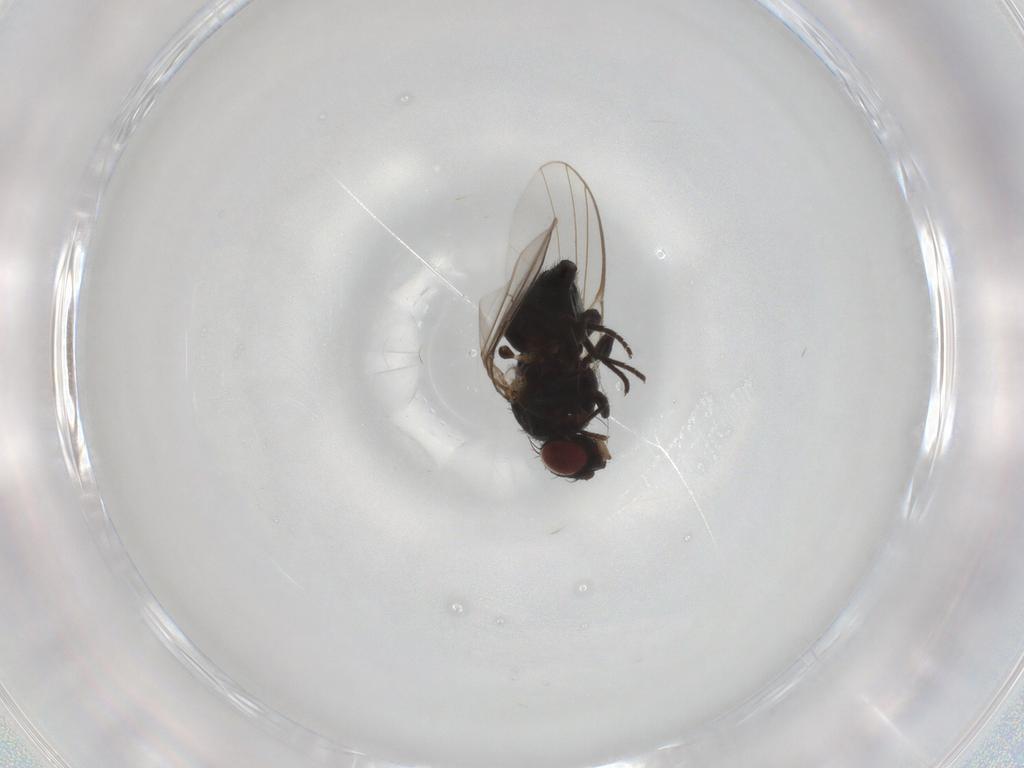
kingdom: Animalia
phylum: Arthropoda
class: Insecta
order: Diptera
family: Agromyzidae
